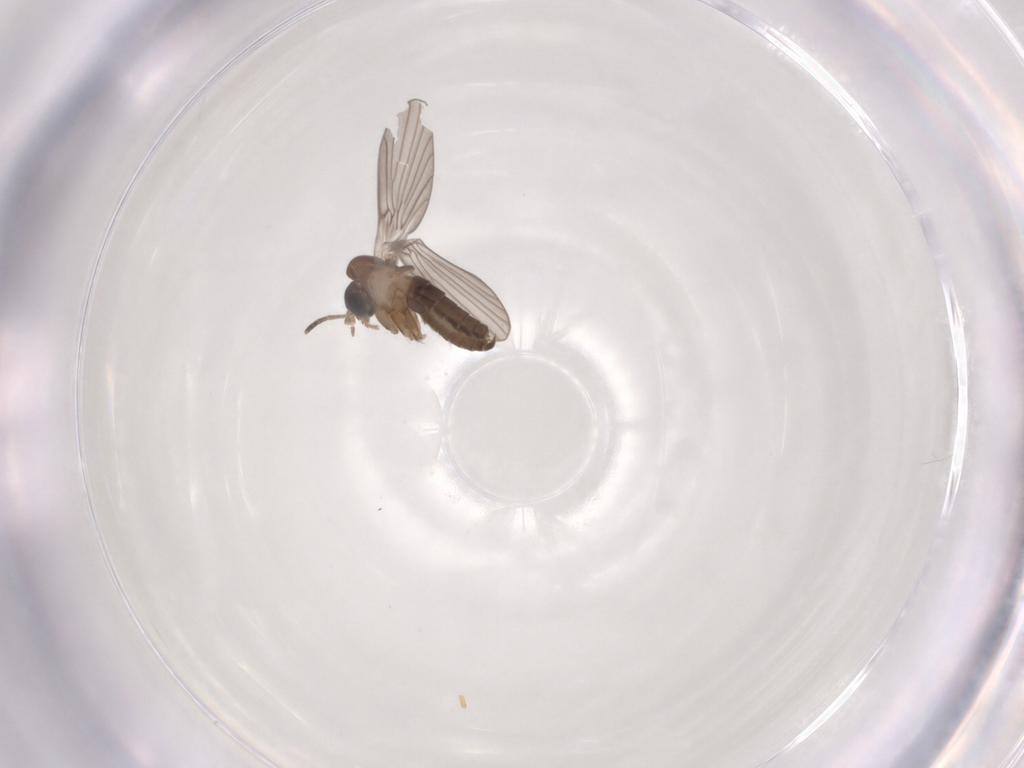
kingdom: Animalia
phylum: Arthropoda
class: Insecta
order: Diptera
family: Psychodidae
